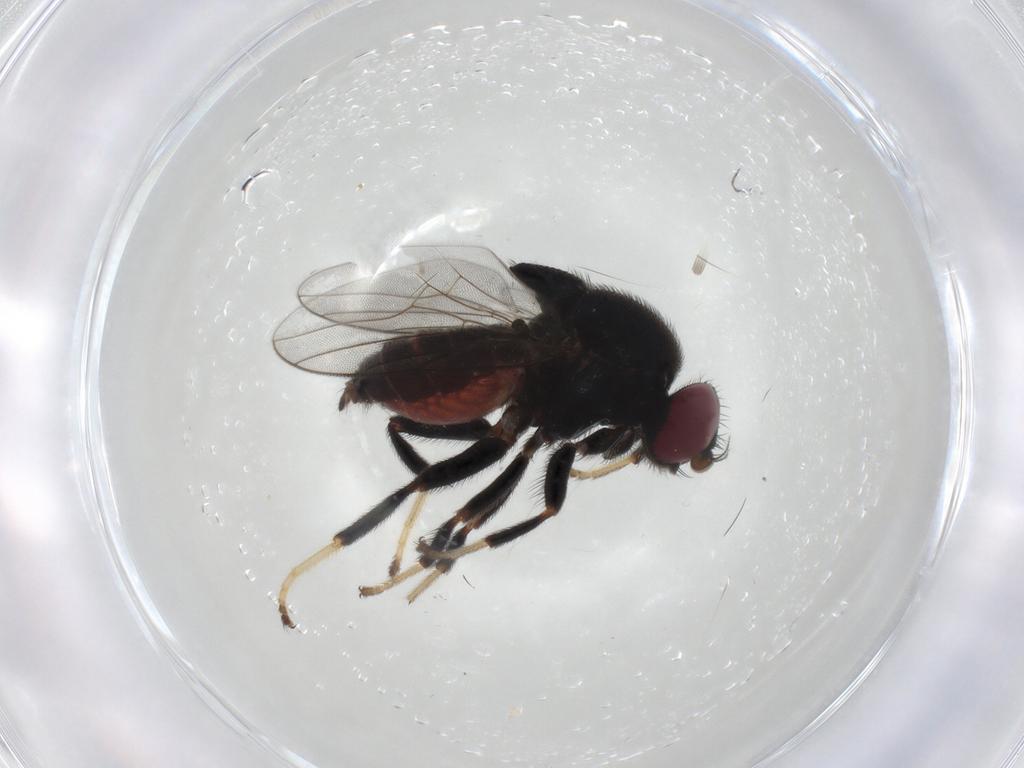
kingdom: Animalia
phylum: Arthropoda
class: Insecta
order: Diptera
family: Chloropidae
